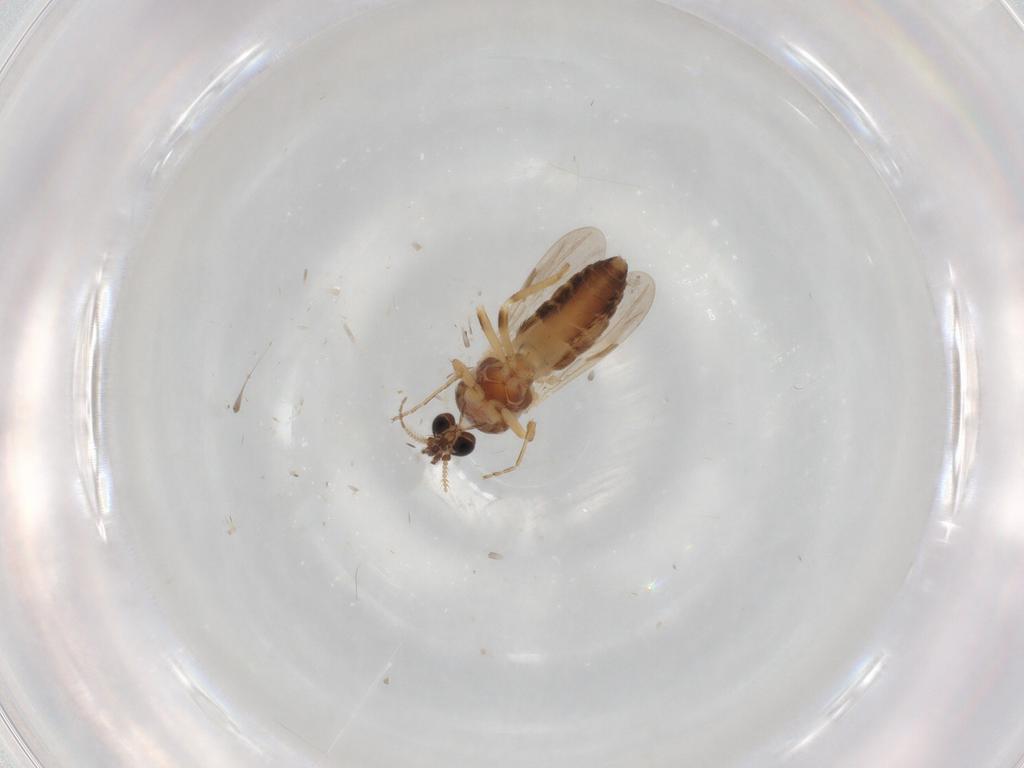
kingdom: Animalia
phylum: Arthropoda
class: Insecta
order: Diptera
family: Ceratopogonidae
